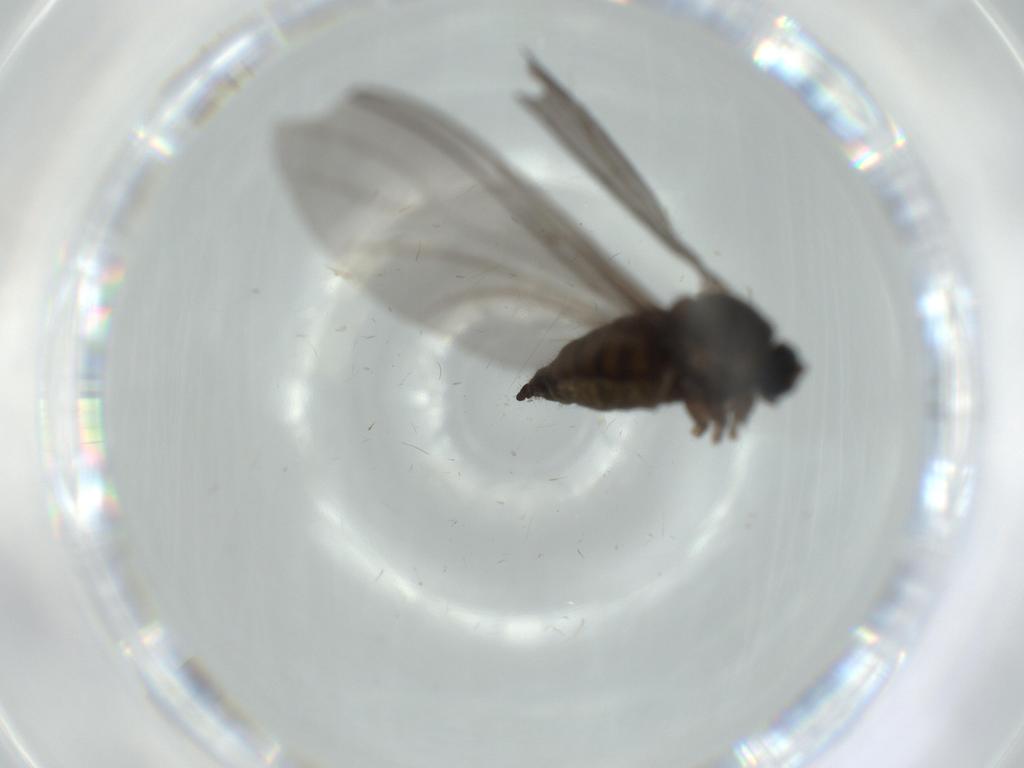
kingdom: Animalia
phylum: Arthropoda
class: Insecta
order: Diptera
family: Sciaridae
